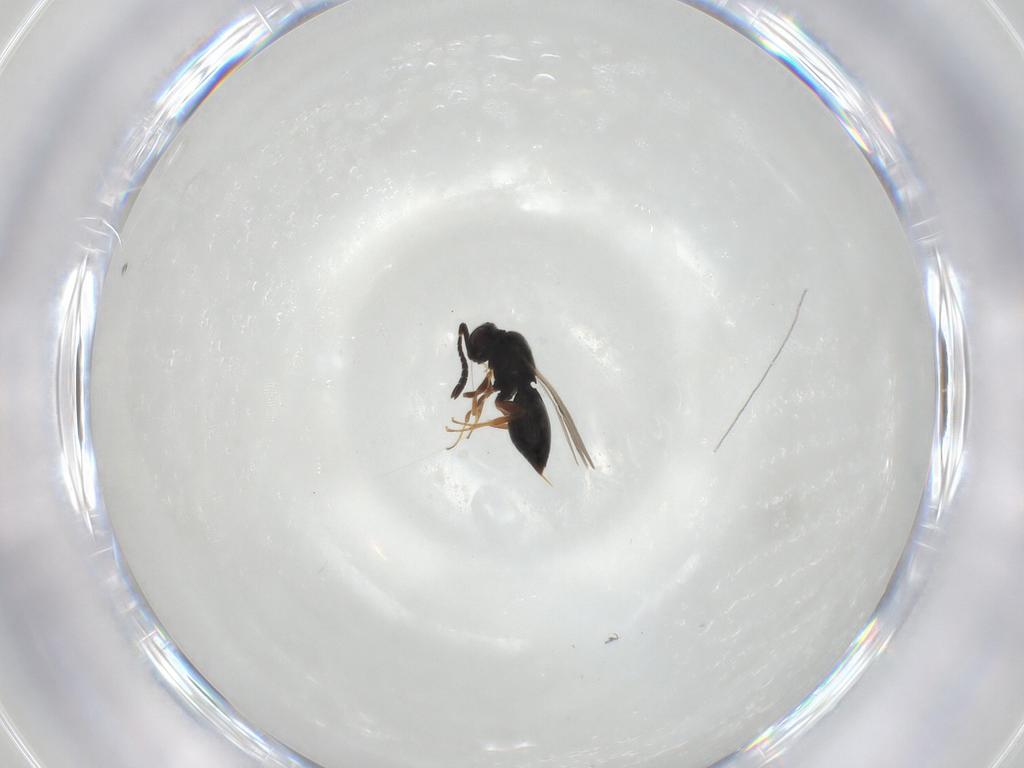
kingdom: Animalia
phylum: Arthropoda
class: Insecta
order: Hymenoptera
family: Ceraphronidae
